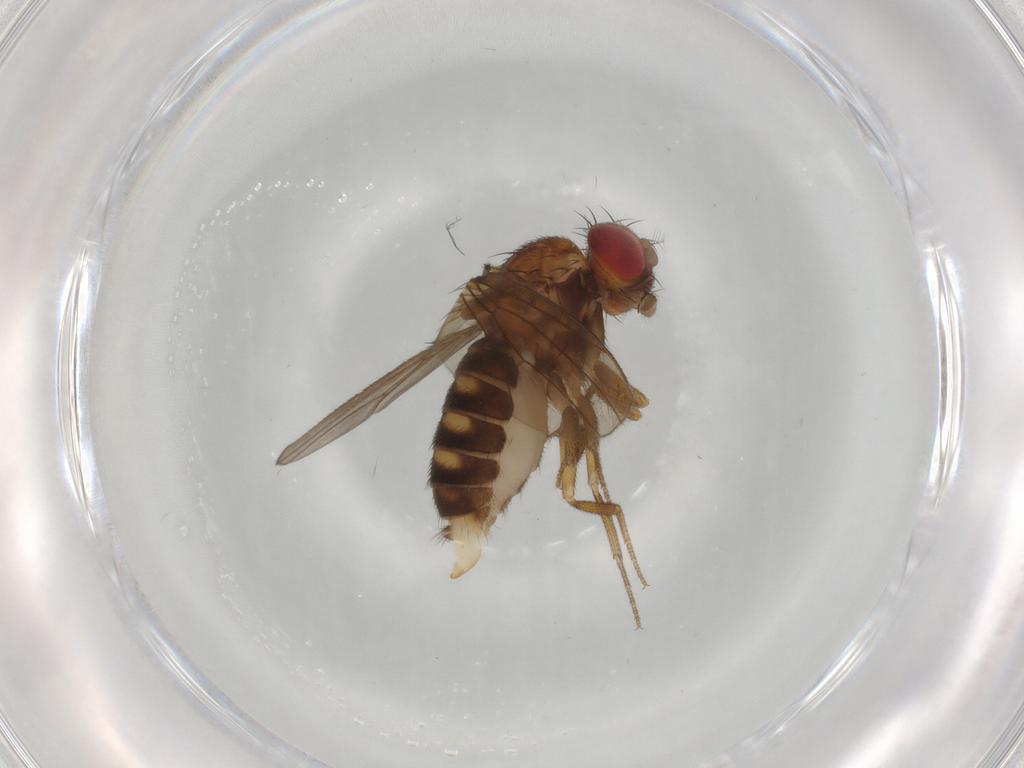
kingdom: Animalia
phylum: Arthropoda
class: Insecta
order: Diptera
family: Drosophilidae
